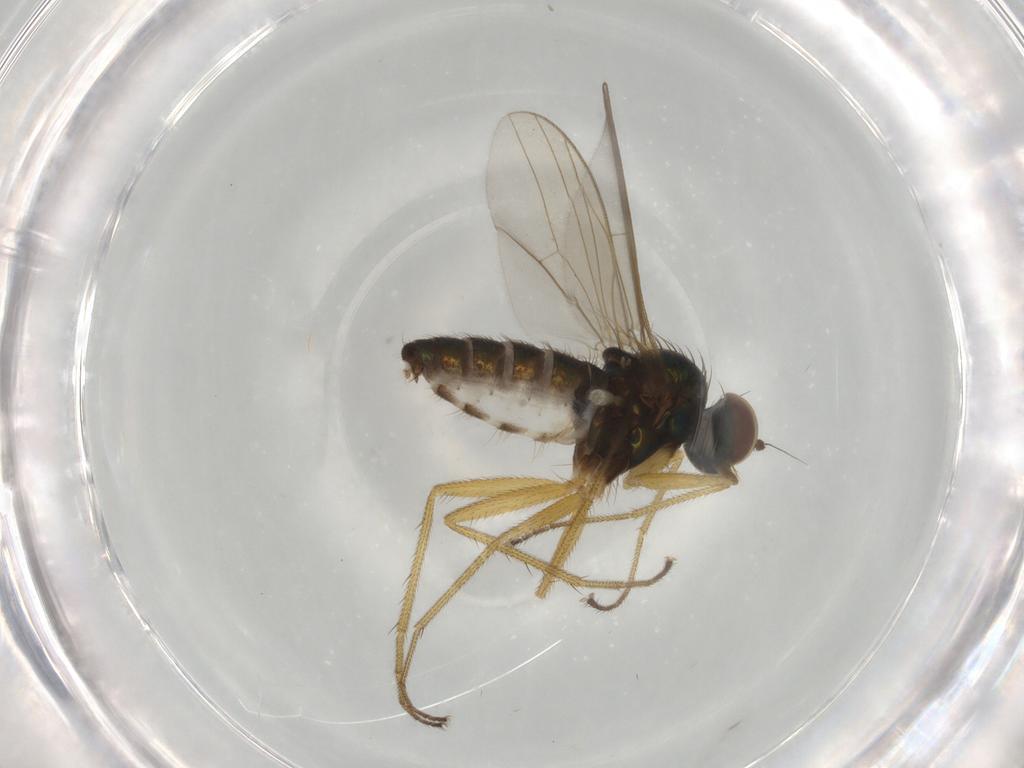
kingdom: Animalia
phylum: Arthropoda
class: Insecta
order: Diptera
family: Dolichopodidae
